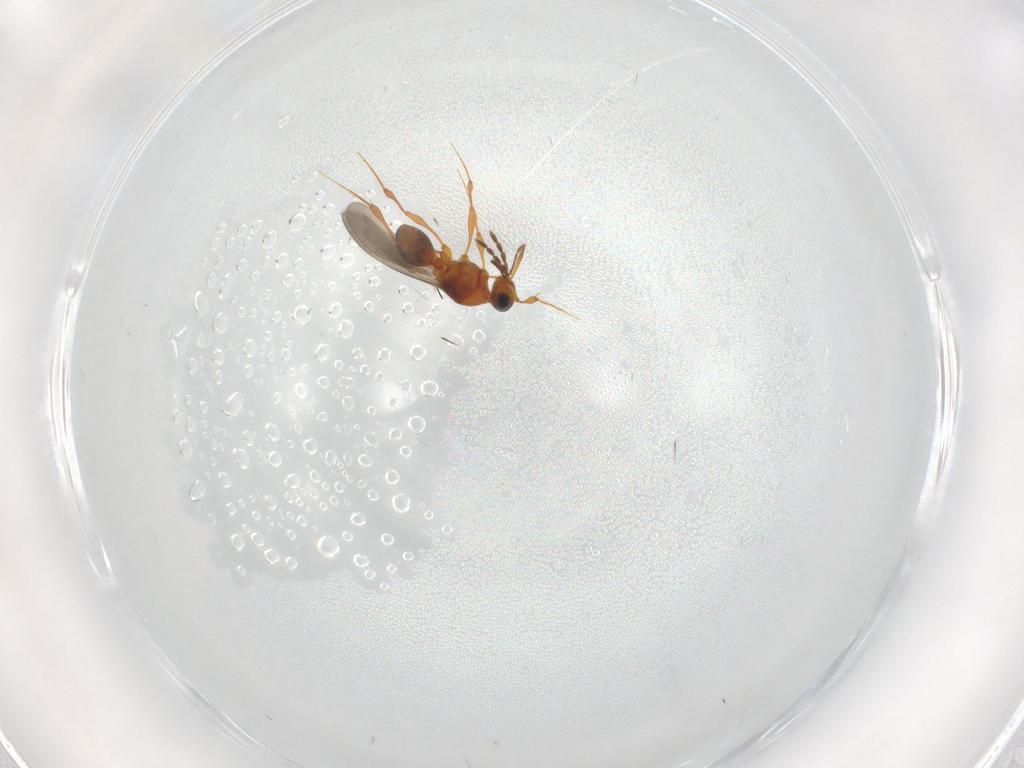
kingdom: Animalia
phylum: Arthropoda
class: Insecta
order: Hymenoptera
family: Platygastridae
